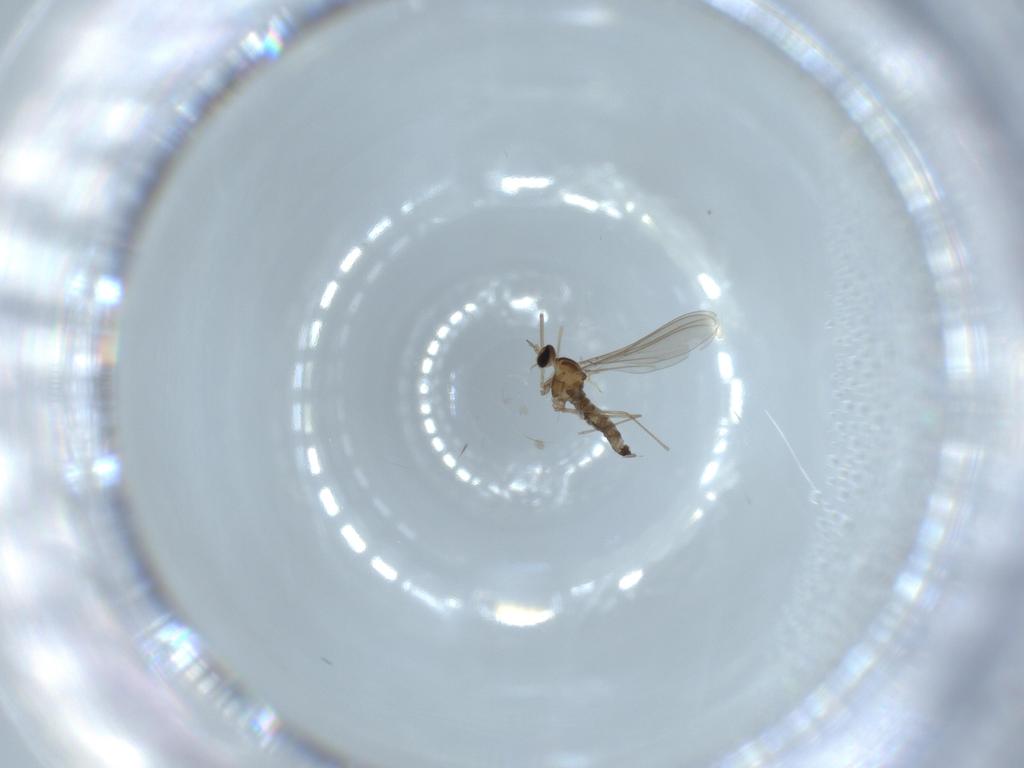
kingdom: Animalia
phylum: Arthropoda
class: Insecta
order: Diptera
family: Cecidomyiidae
